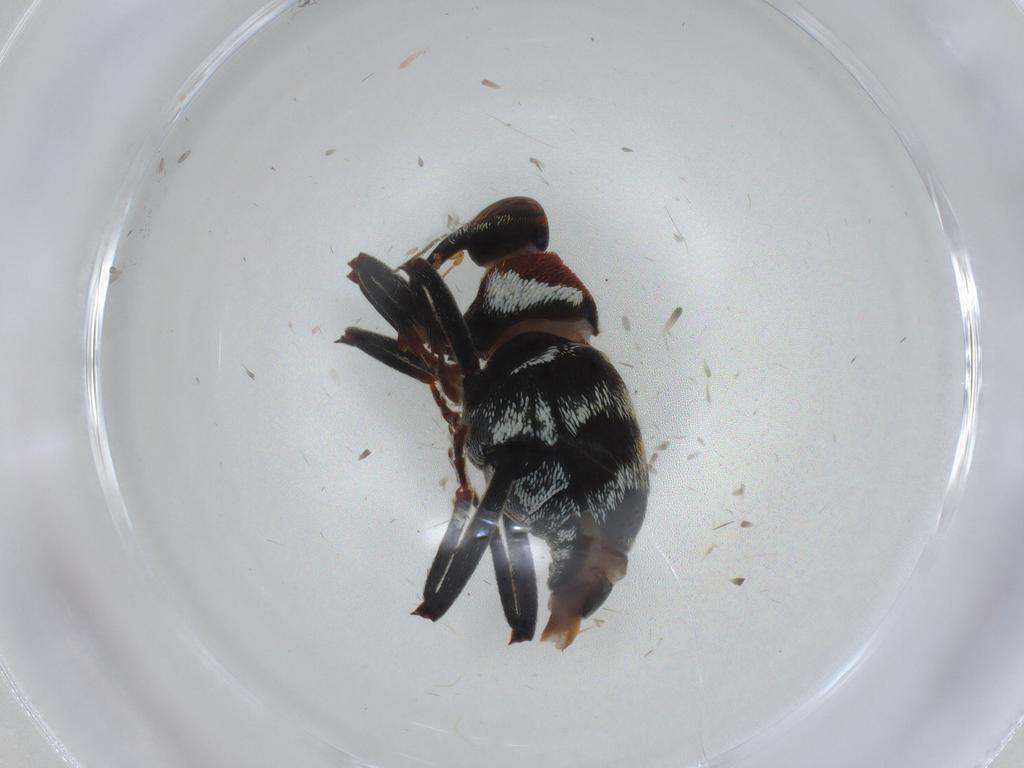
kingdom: Animalia
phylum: Arthropoda
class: Insecta
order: Coleoptera
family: Curculionidae
